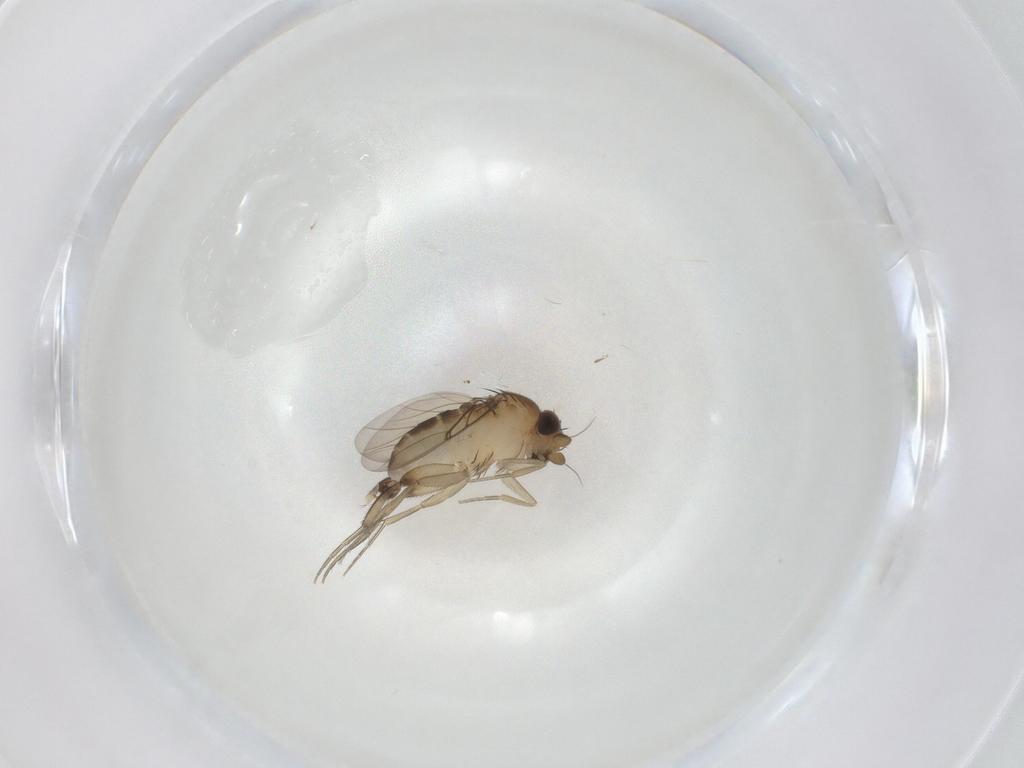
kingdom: Animalia
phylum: Arthropoda
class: Insecta
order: Diptera
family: Phoridae
